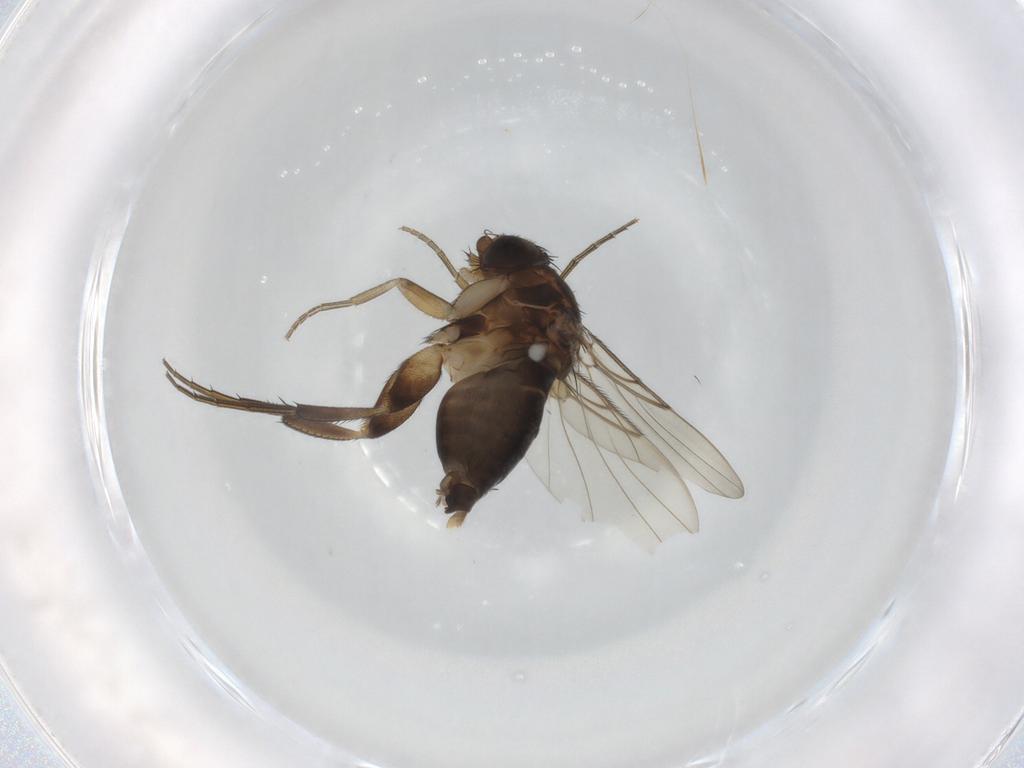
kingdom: Animalia
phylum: Arthropoda
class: Insecta
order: Diptera
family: Phoridae
